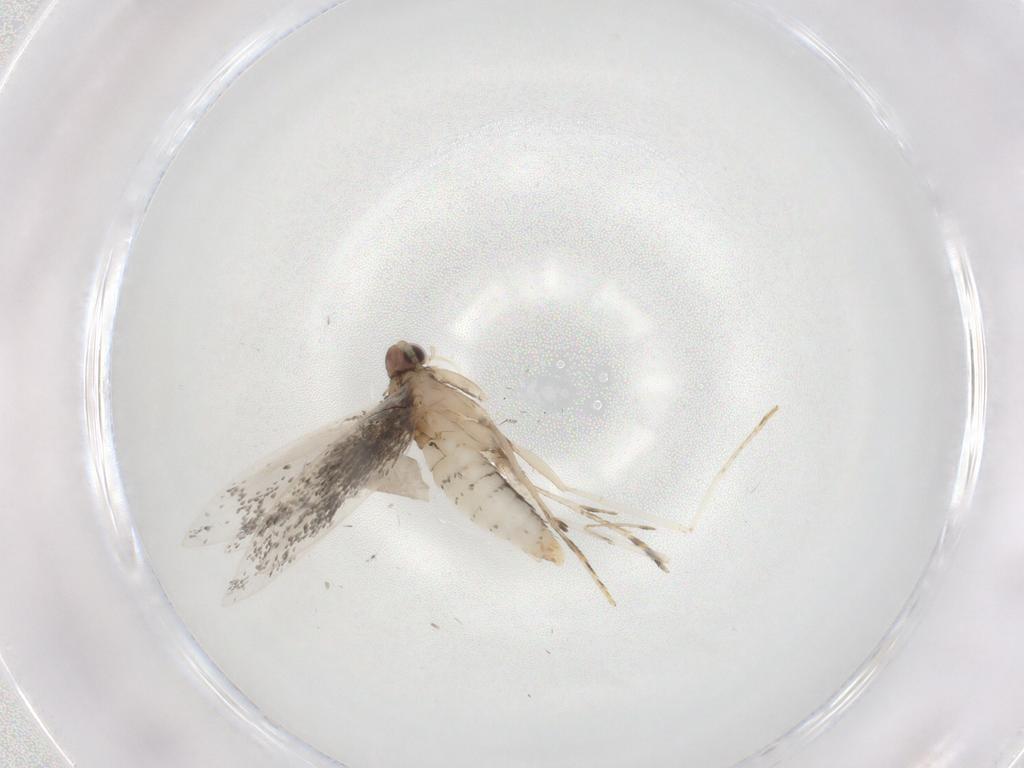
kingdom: Animalia
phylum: Arthropoda
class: Insecta
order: Lepidoptera
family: Tineidae
